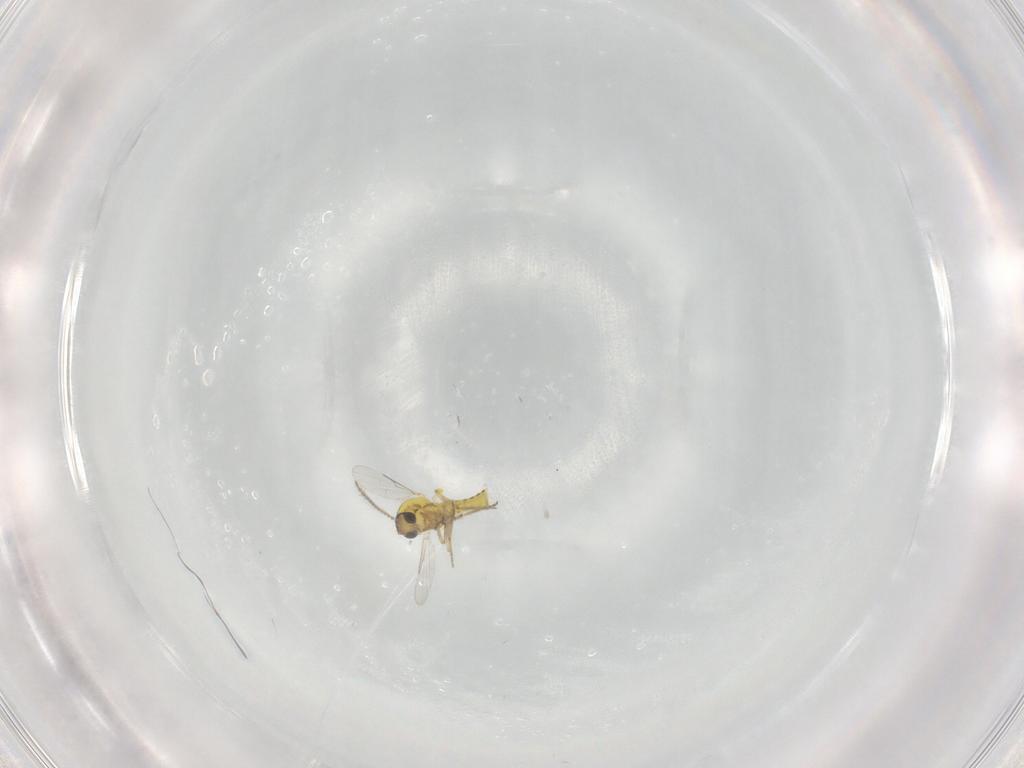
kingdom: Animalia
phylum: Arthropoda
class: Insecta
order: Diptera
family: Ceratopogonidae
